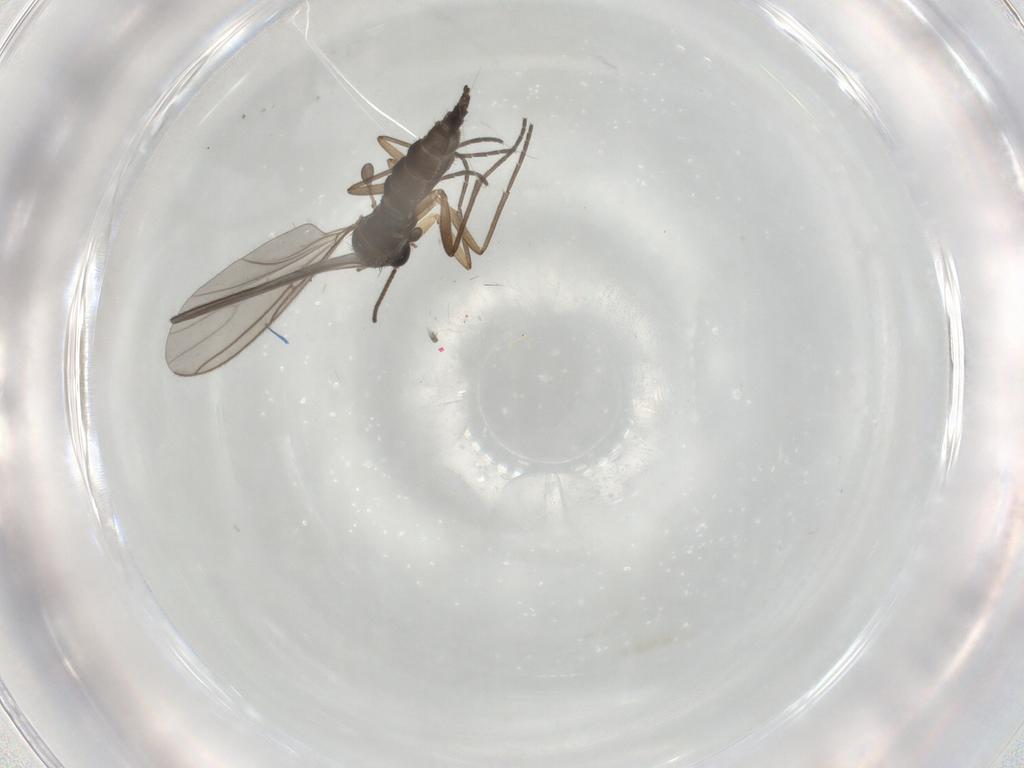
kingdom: Animalia
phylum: Arthropoda
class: Insecta
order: Diptera
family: Sciaridae
